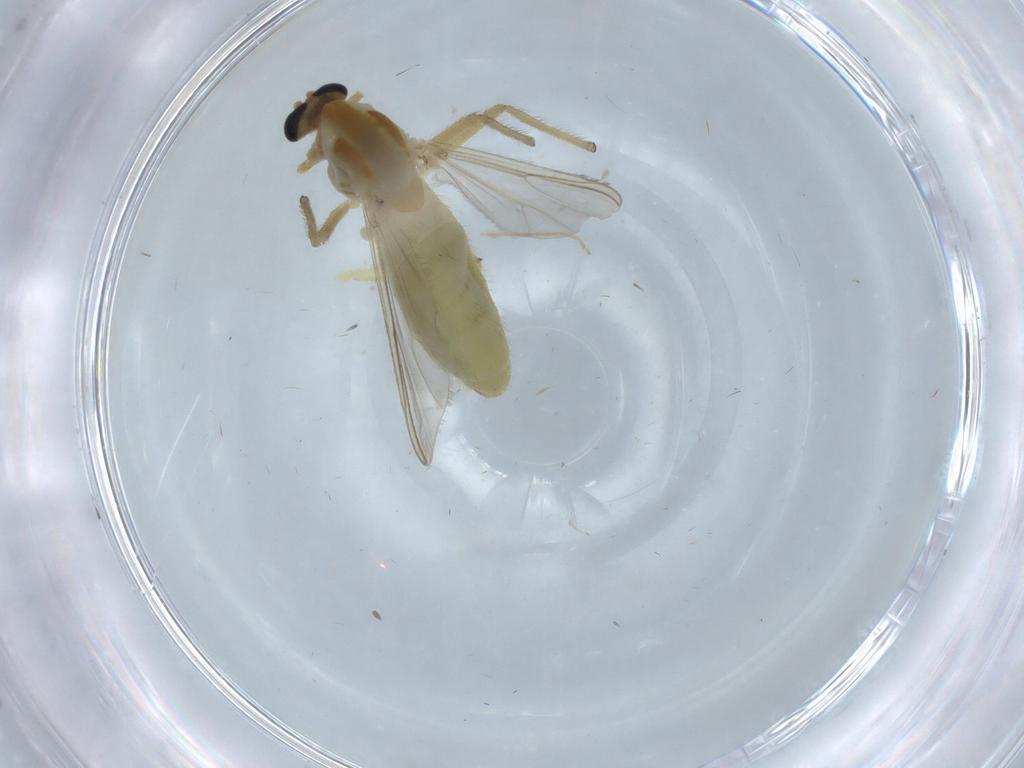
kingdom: Animalia
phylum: Arthropoda
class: Insecta
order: Diptera
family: Chironomidae
